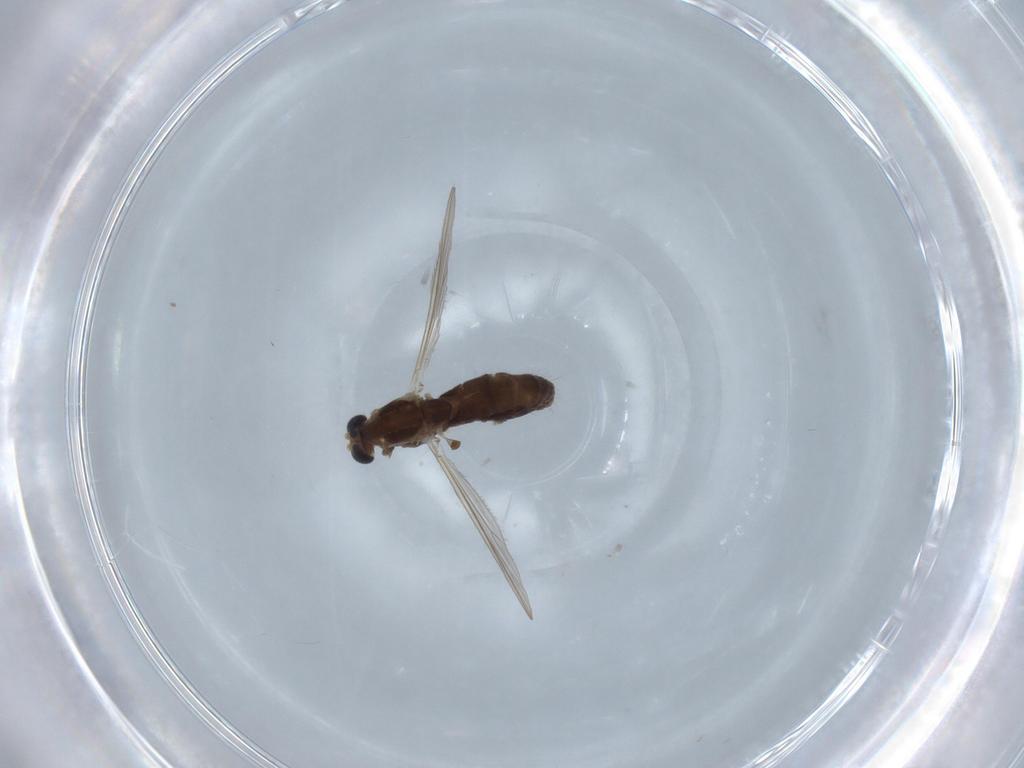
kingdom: Animalia
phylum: Arthropoda
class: Insecta
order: Diptera
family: Chironomidae
